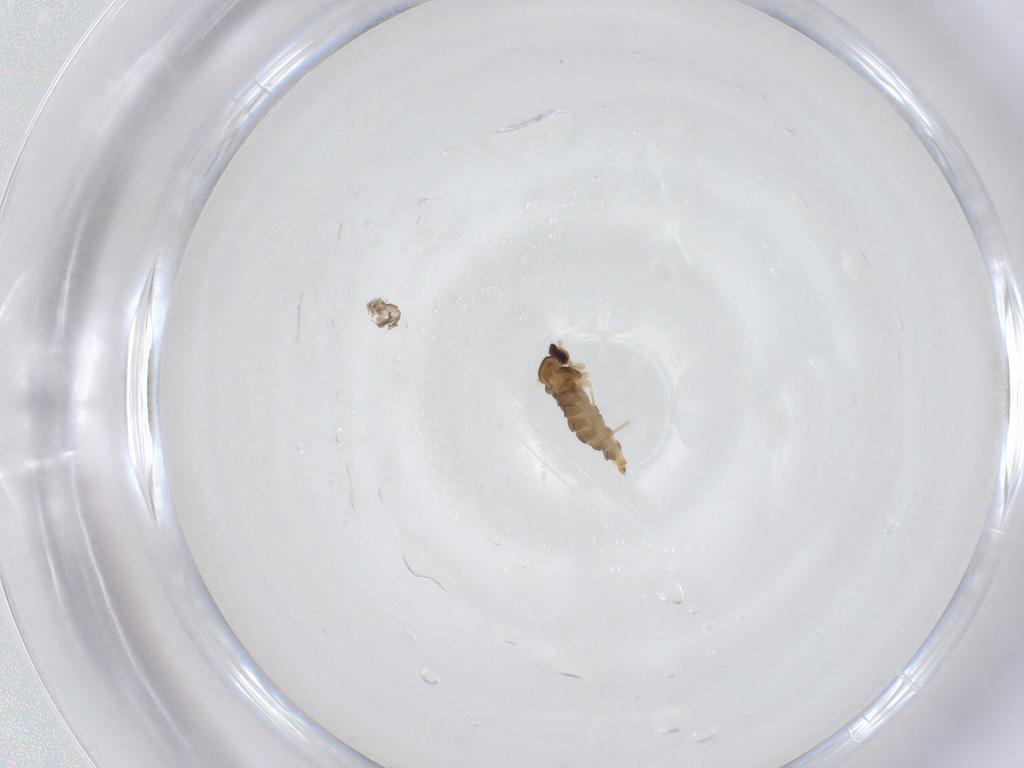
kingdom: Animalia
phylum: Arthropoda
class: Insecta
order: Diptera
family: Cecidomyiidae
